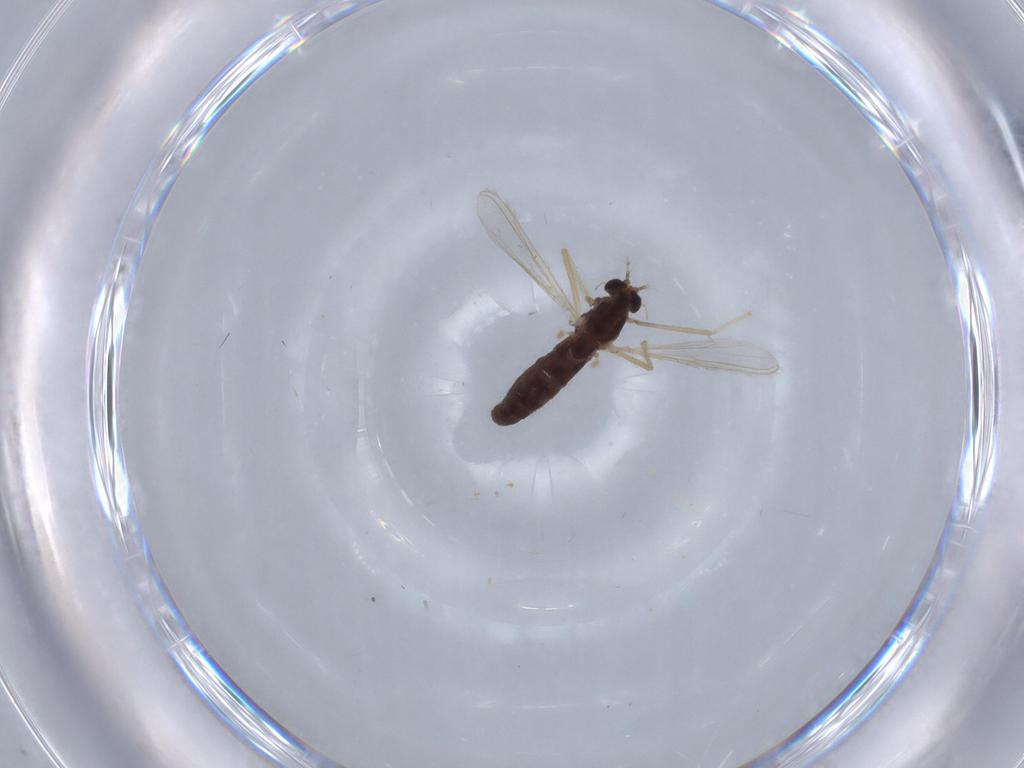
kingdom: Animalia
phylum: Arthropoda
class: Insecta
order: Diptera
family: Chironomidae
